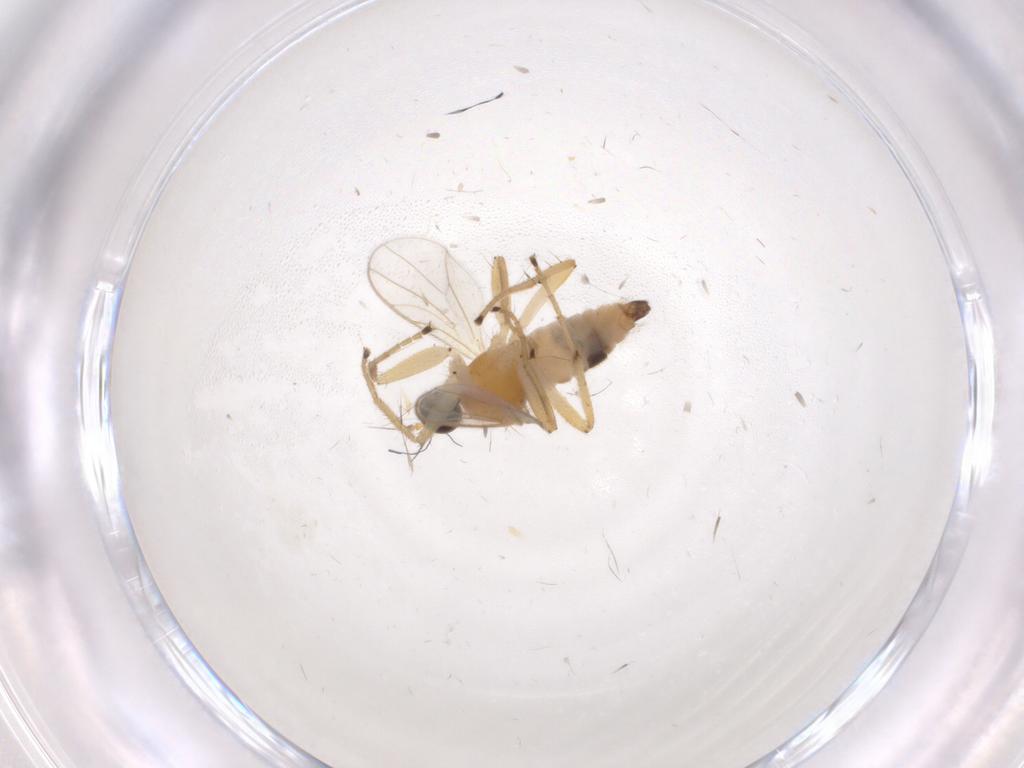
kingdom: Animalia
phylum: Arthropoda
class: Insecta
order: Diptera
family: Hybotidae
